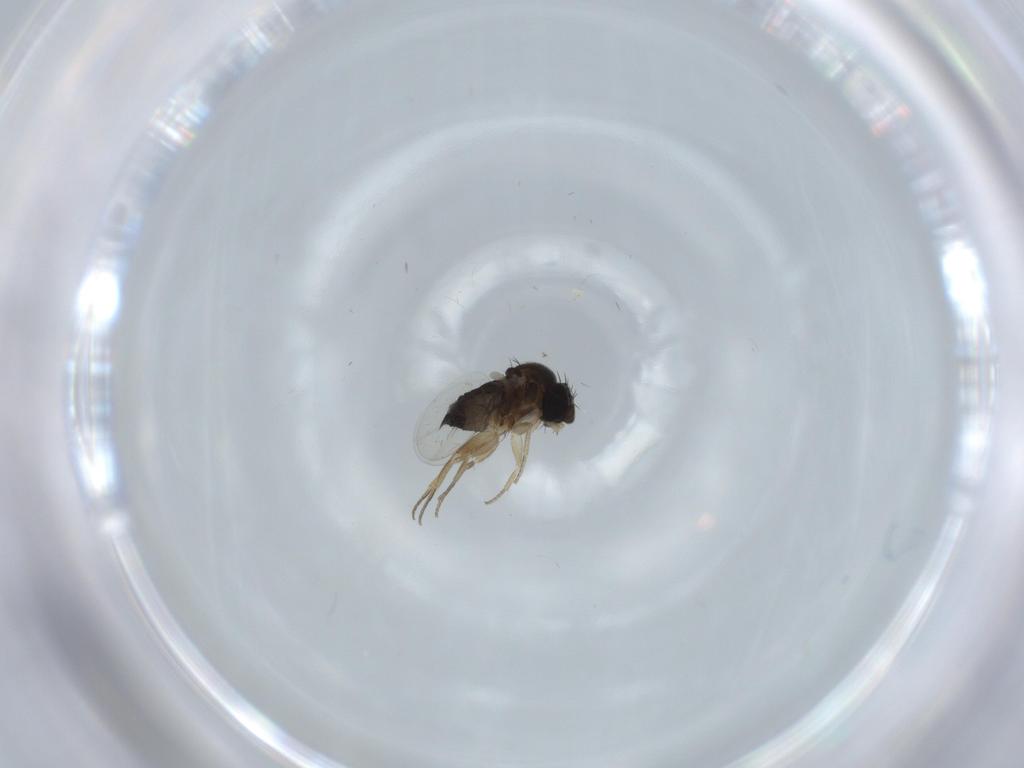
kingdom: Animalia
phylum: Arthropoda
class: Insecta
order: Diptera
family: Phoridae
